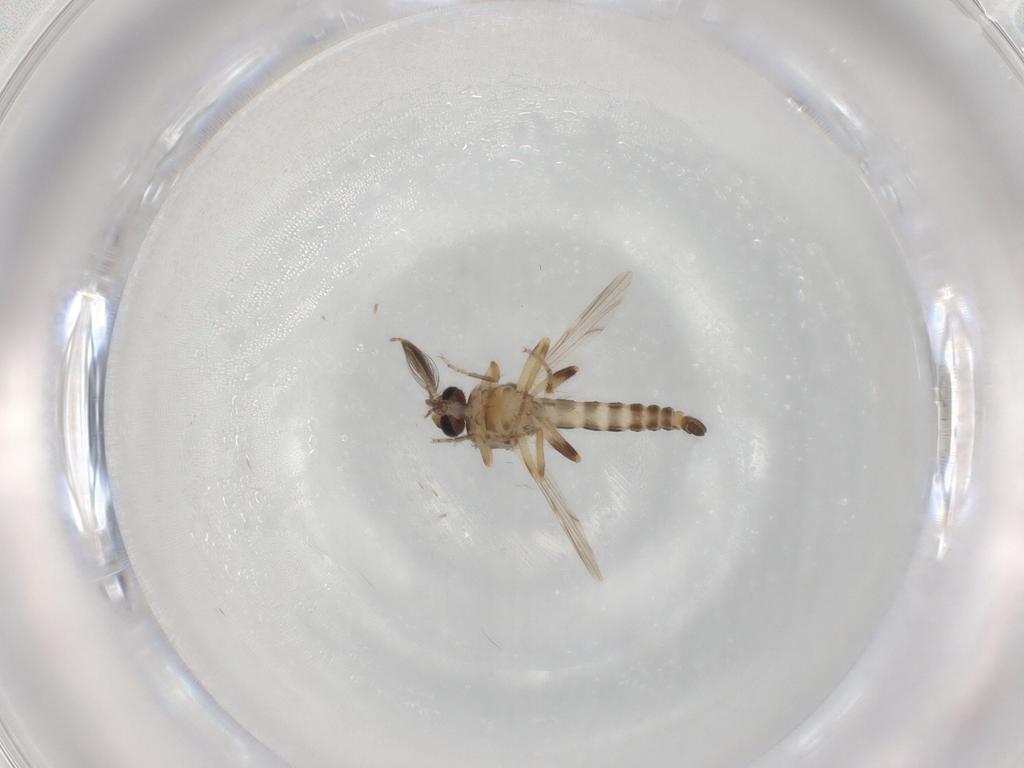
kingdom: Animalia
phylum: Arthropoda
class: Insecta
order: Diptera
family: Ceratopogonidae
